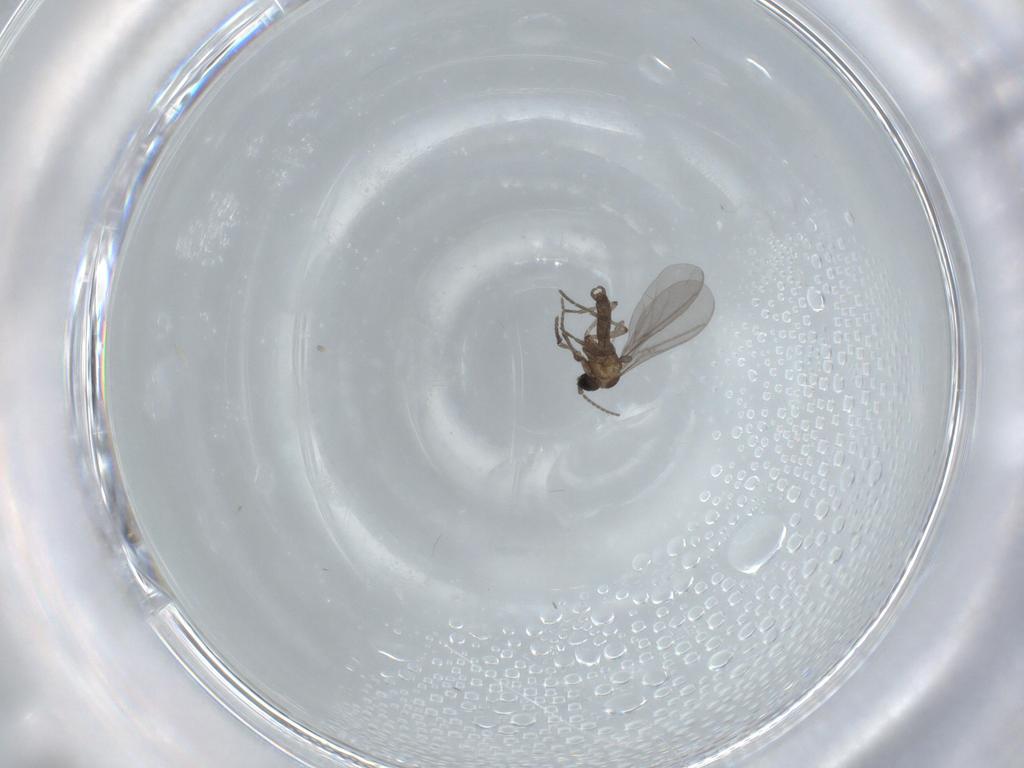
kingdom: Animalia
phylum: Arthropoda
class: Insecta
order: Diptera
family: Sciaridae
